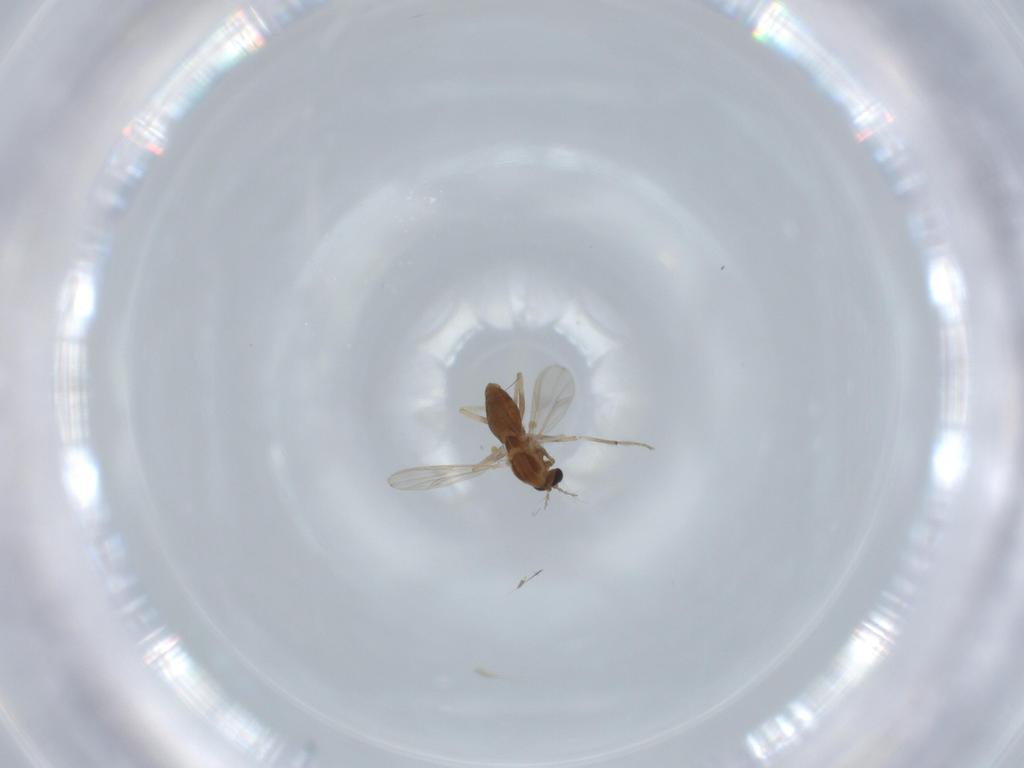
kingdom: Animalia
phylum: Arthropoda
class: Insecta
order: Diptera
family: Chironomidae
